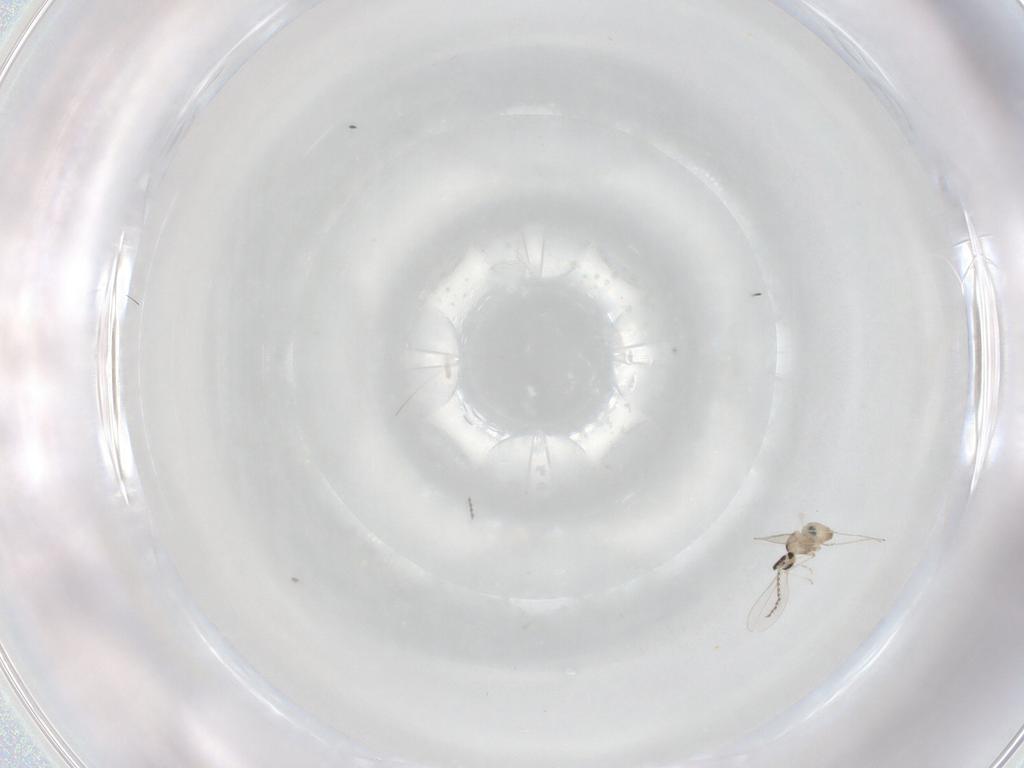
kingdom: Animalia
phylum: Arthropoda
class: Insecta
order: Diptera
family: Cecidomyiidae
